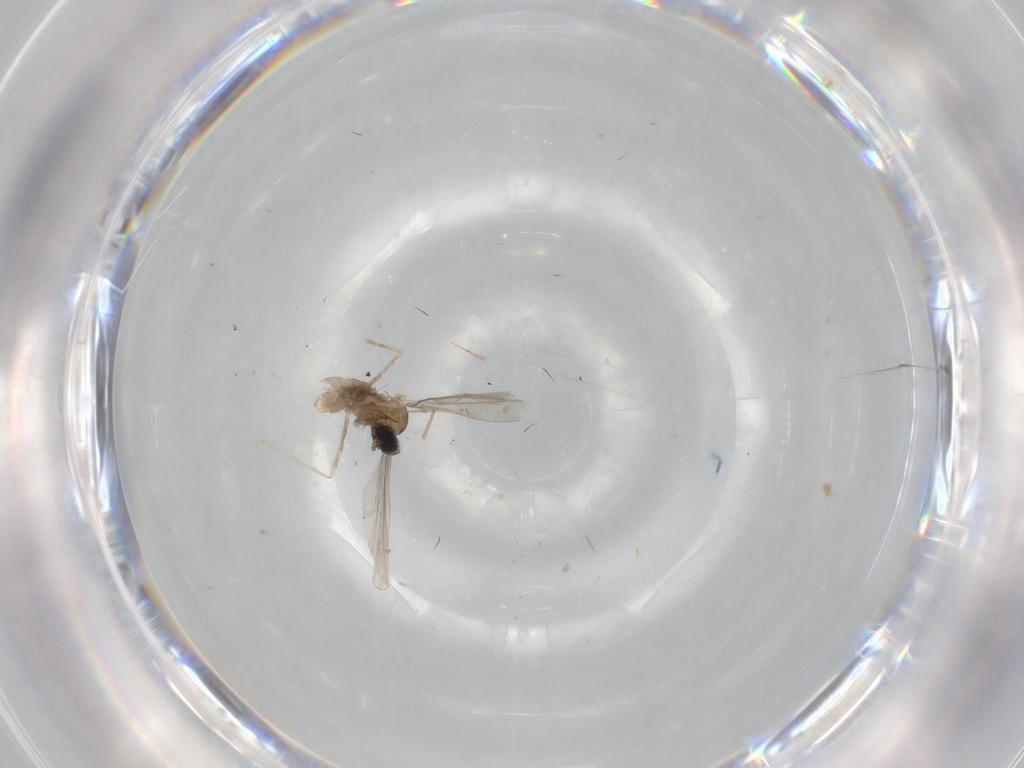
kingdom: Animalia
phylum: Arthropoda
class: Insecta
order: Diptera
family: Cecidomyiidae
